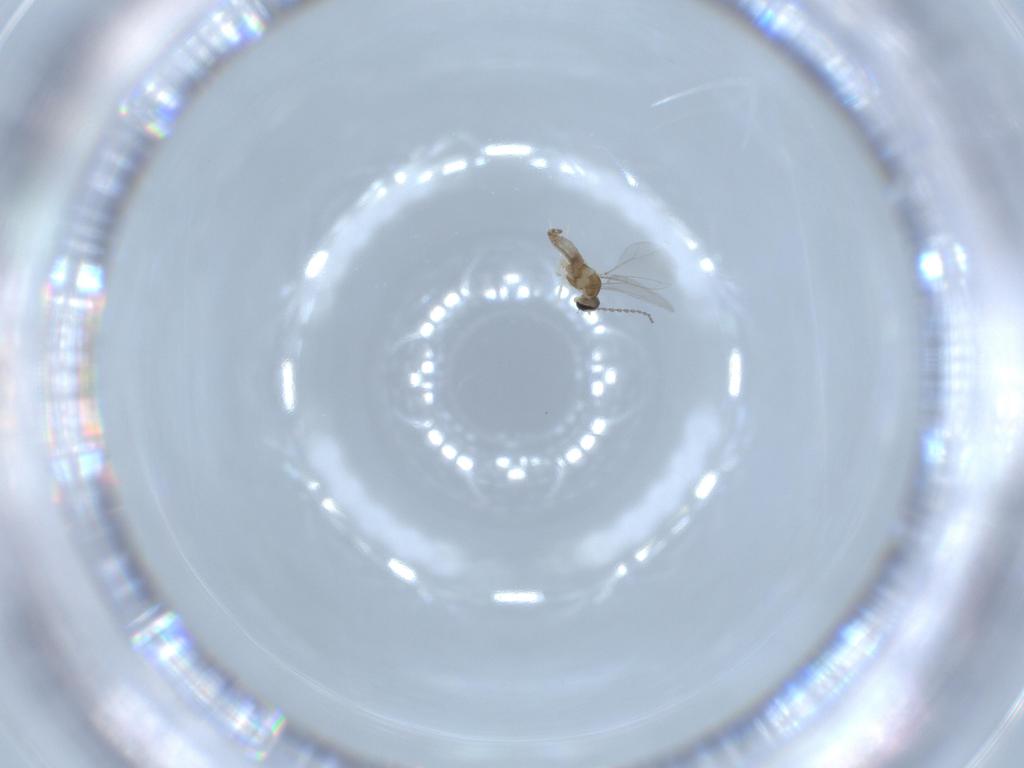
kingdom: Animalia
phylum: Arthropoda
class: Insecta
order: Diptera
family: Cecidomyiidae
